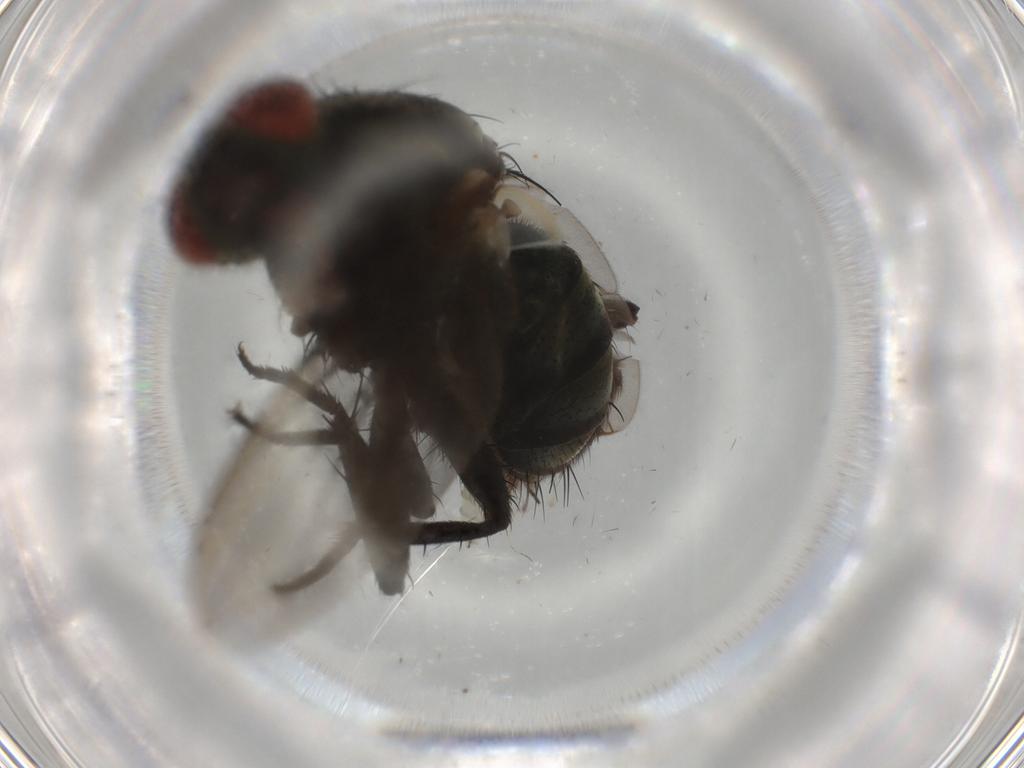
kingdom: Animalia
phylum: Arthropoda
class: Insecta
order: Diptera
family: Sarcophagidae
